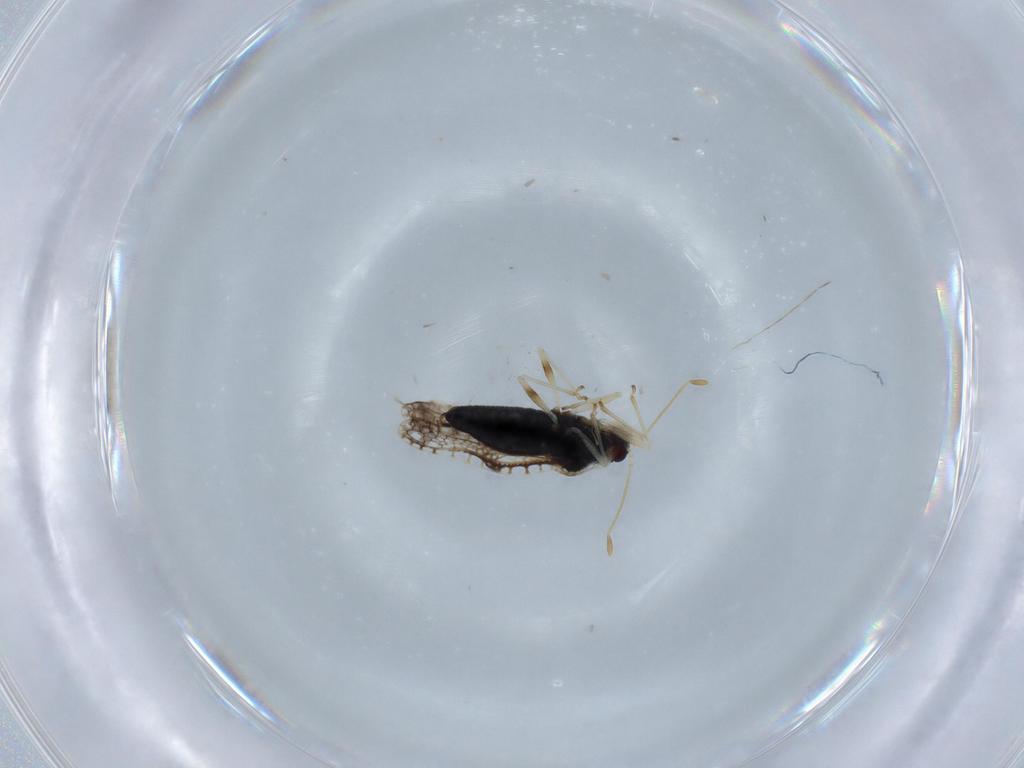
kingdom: Animalia
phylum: Arthropoda
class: Insecta
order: Hemiptera
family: Tingidae
